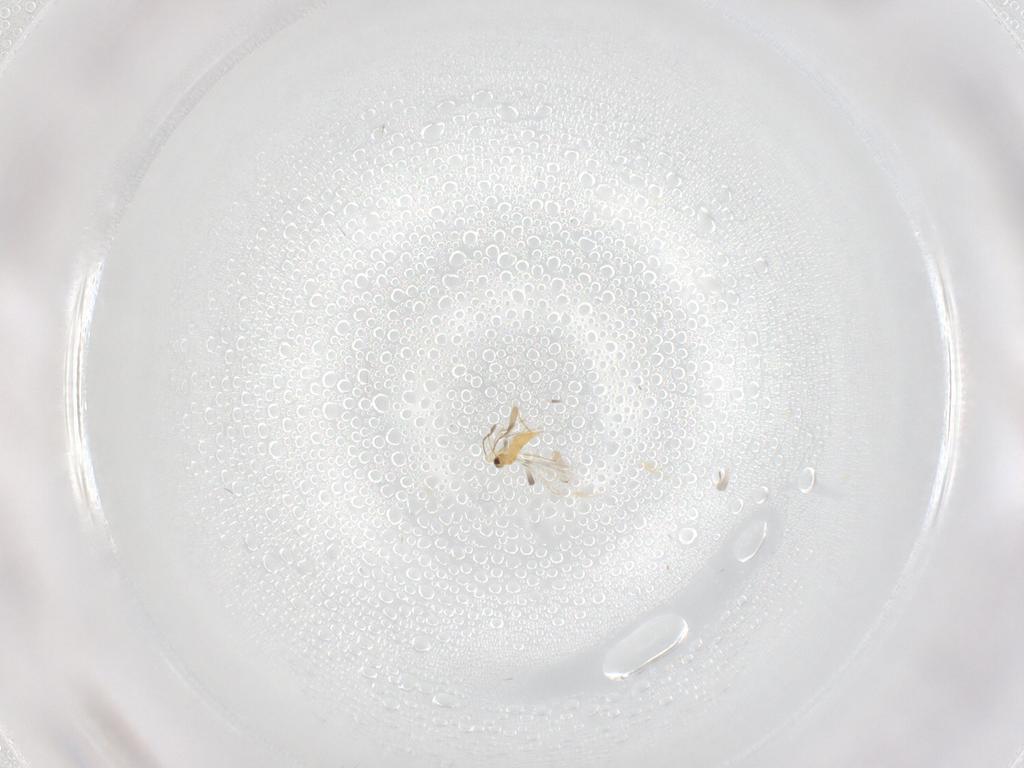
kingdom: Animalia
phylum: Arthropoda
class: Insecta
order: Hymenoptera
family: Mymaridae
